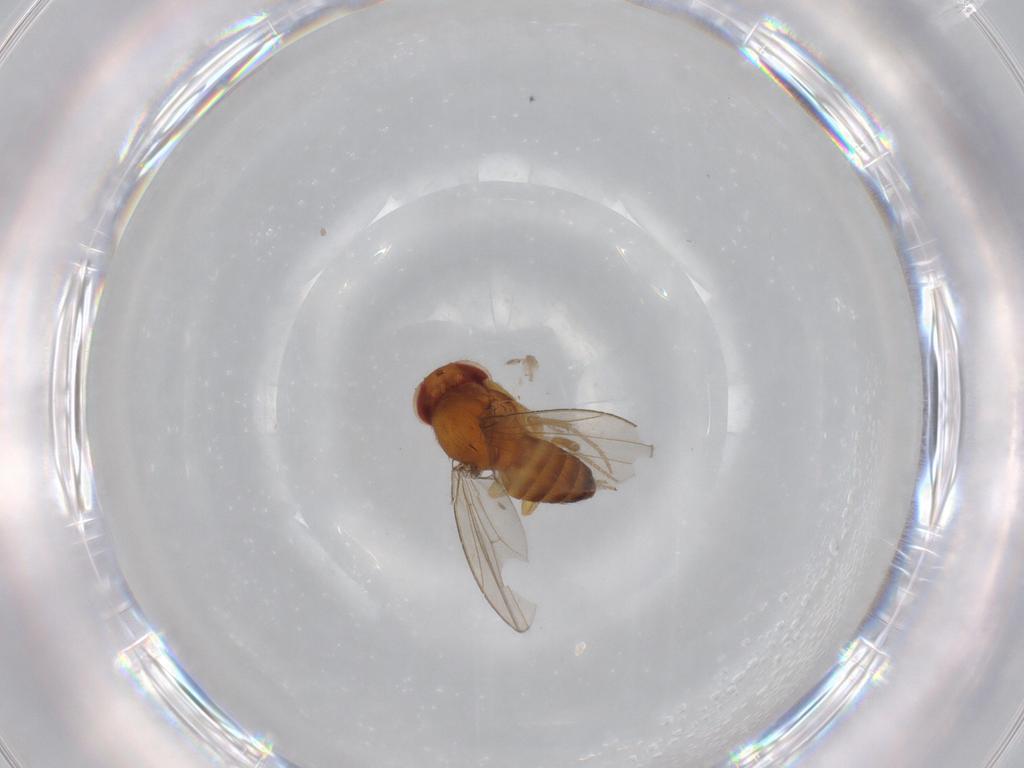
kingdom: Animalia
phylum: Arthropoda
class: Insecta
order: Diptera
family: Drosophilidae
